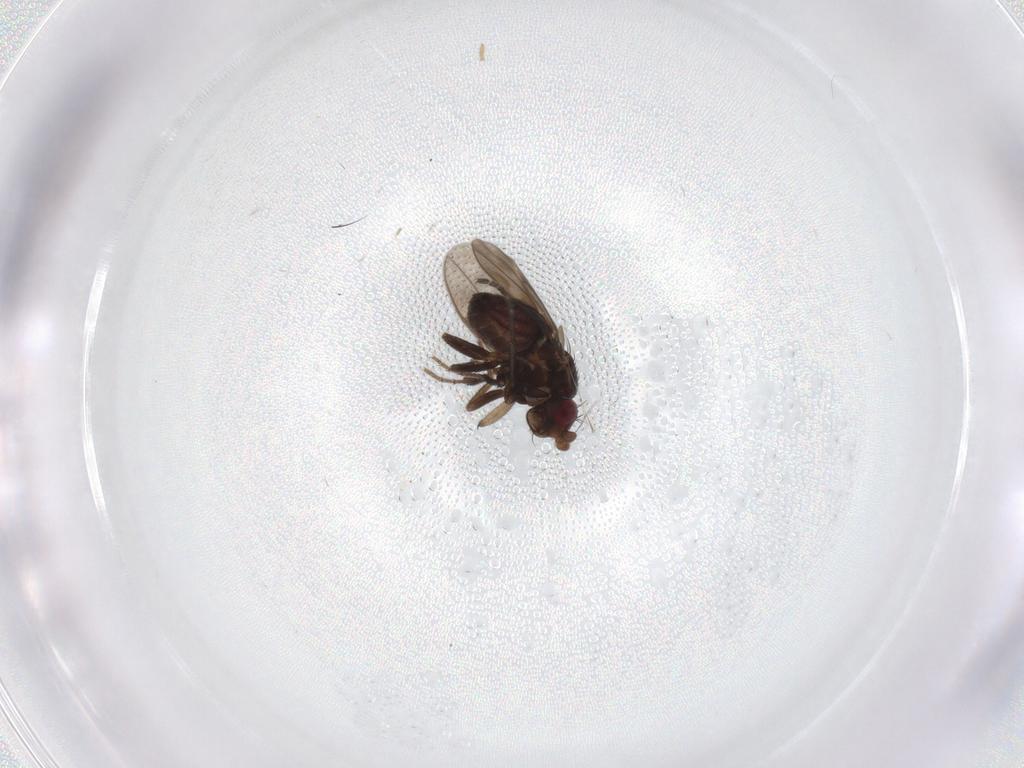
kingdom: Animalia
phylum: Arthropoda
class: Insecta
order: Diptera
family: Sphaeroceridae
